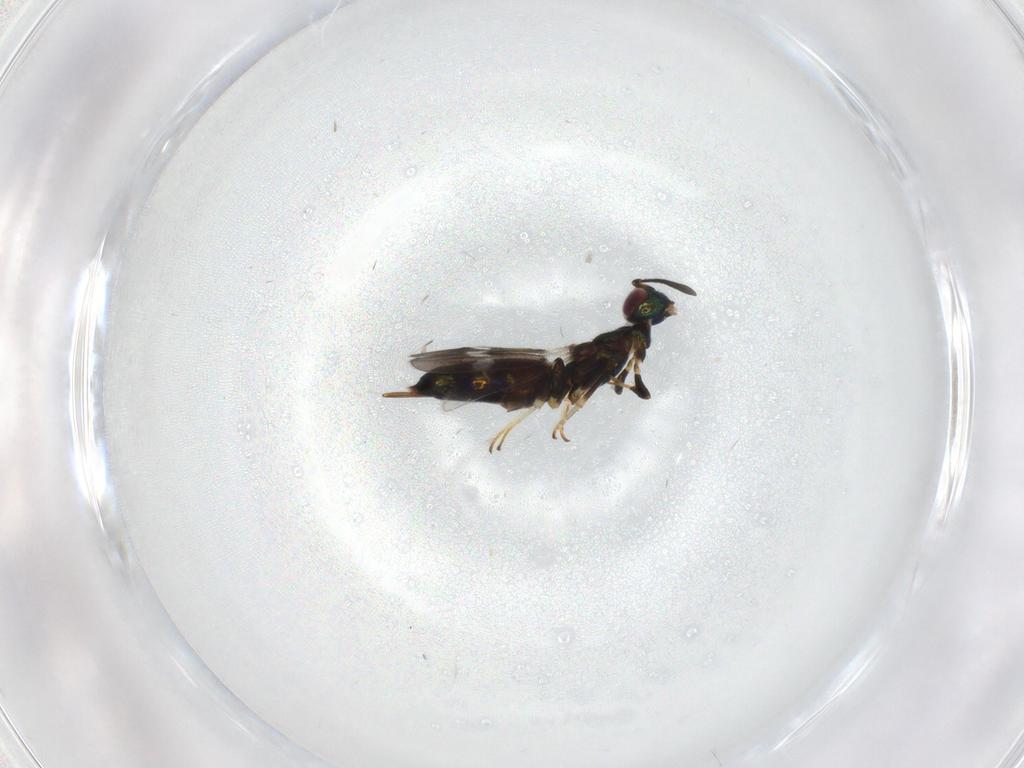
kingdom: Animalia
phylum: Arthropoda
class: Insecta
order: Hymenoptera
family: Eupelmidae
